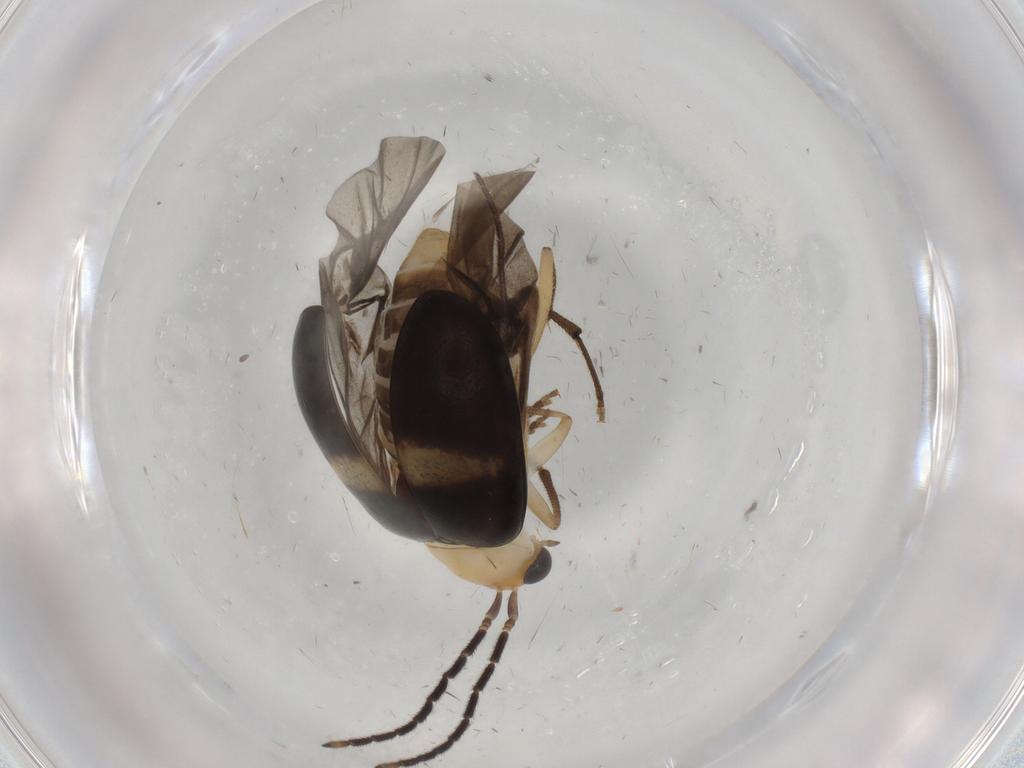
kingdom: Animalia
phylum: Arthropoda
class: Insecta
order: Coleoptera
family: Chrysomelidae
